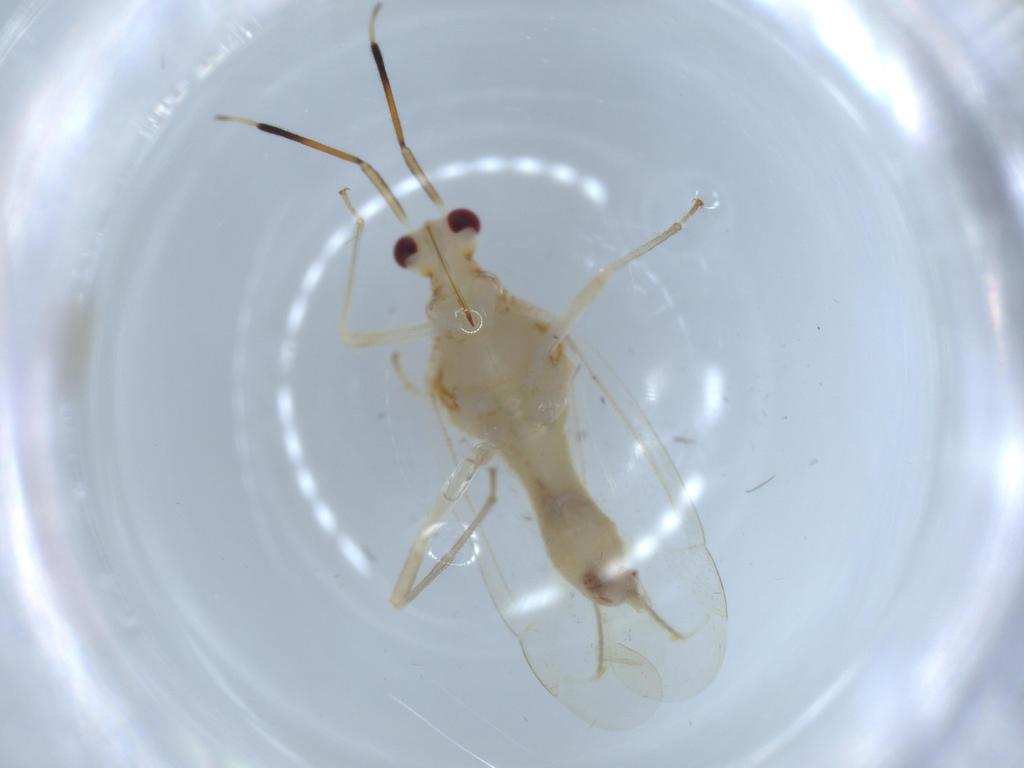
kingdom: Animalia
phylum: Arthropoda
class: Insecta
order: Hemiptera
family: Miridae
